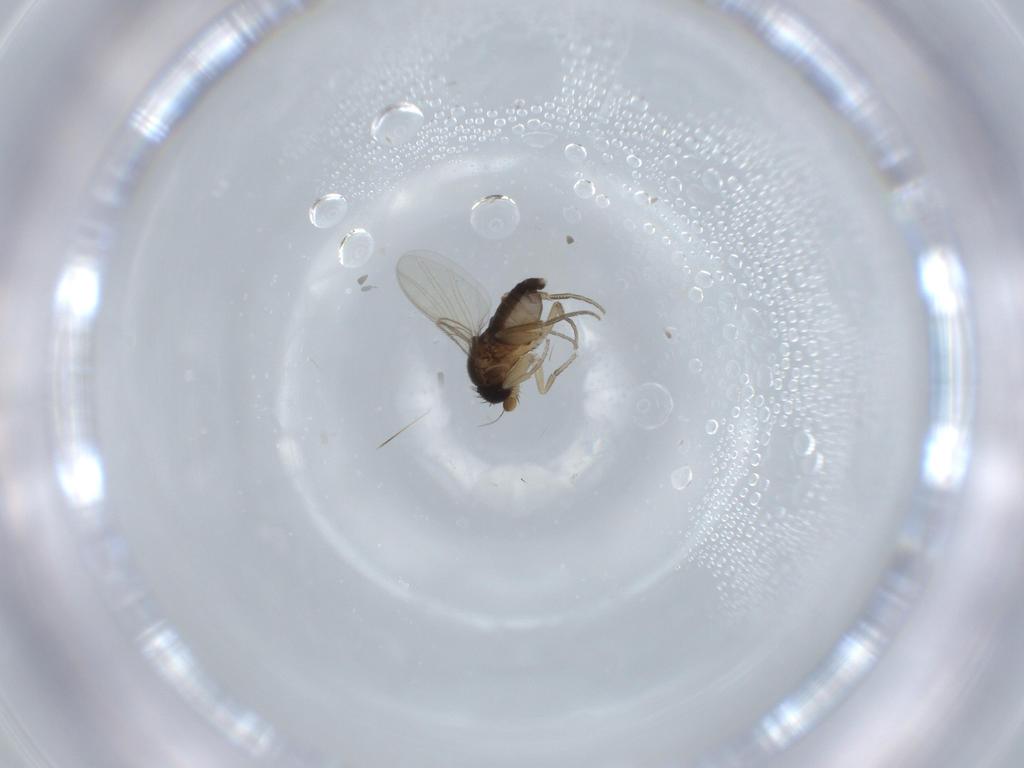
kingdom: Animalia
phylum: Arthropoda
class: Insecta
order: Diptera
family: Phoridae
